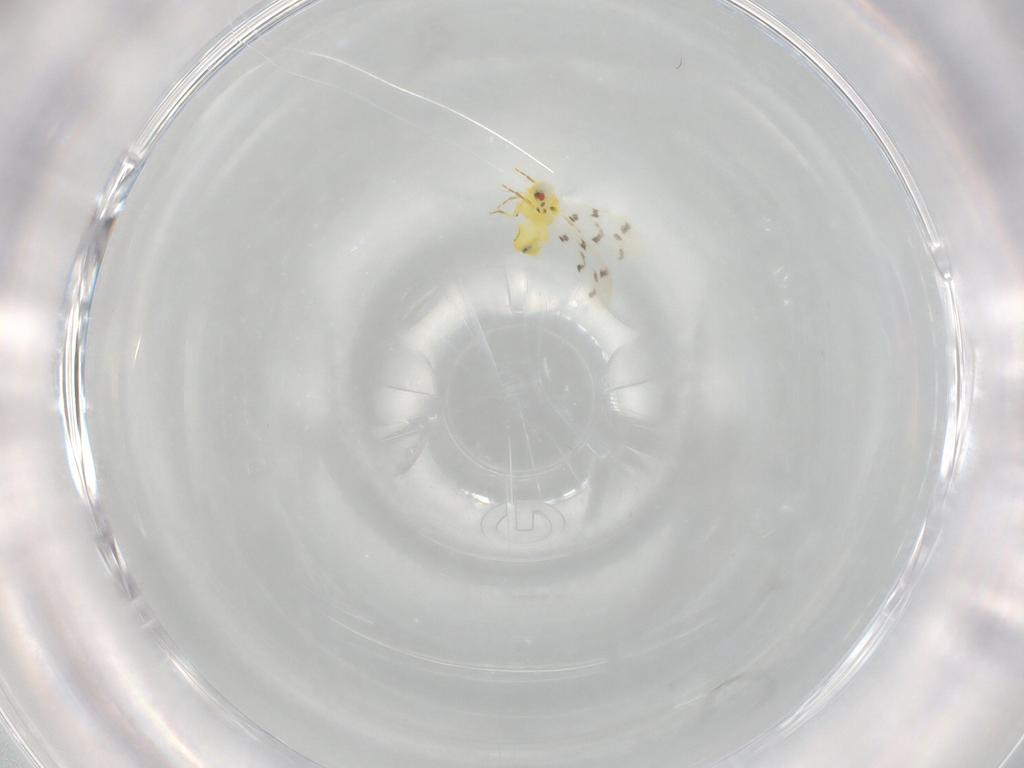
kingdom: Animalia
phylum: Arthropoda
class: Insecta
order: Hemiptera
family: Aleyrodidae
